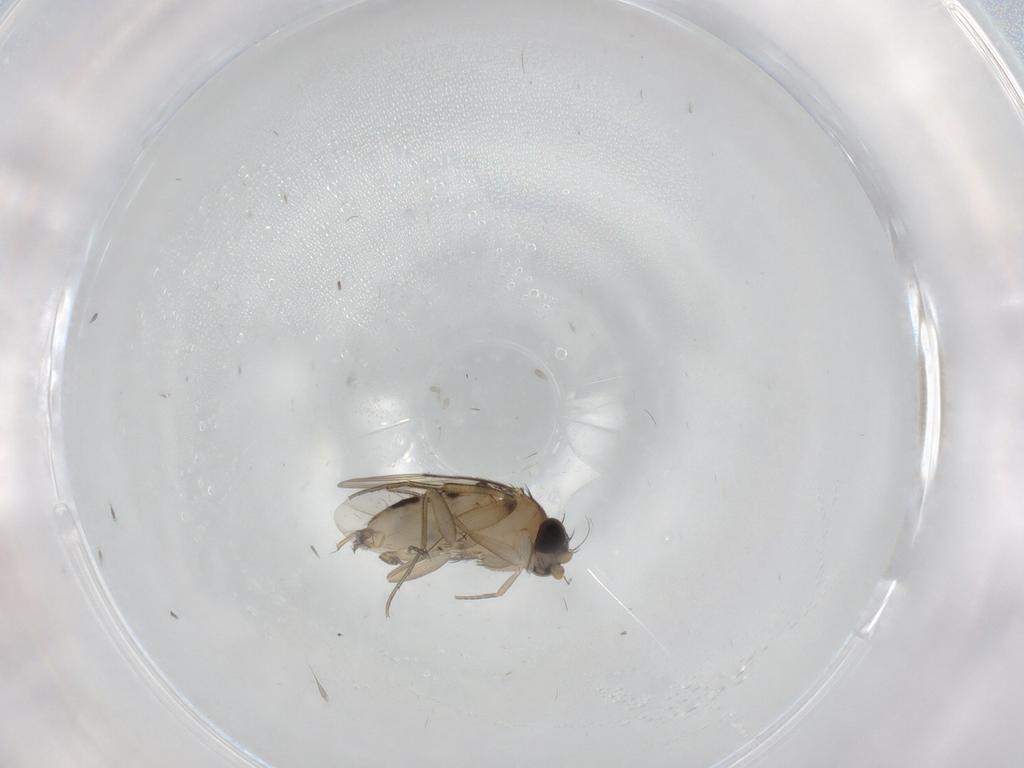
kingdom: Animalia
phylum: Arthropoda
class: Insecta
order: Diptera
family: Phoridae
